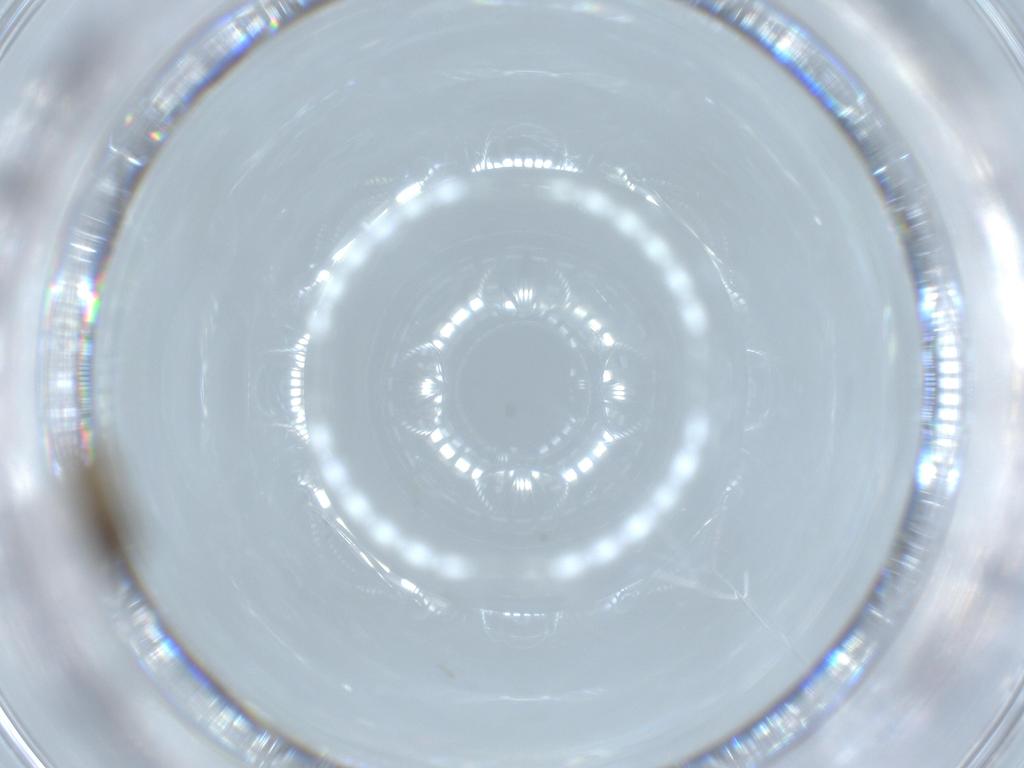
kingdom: Animalia
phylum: Arthropoda
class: Insecta
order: Diptera
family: Psychodidae
